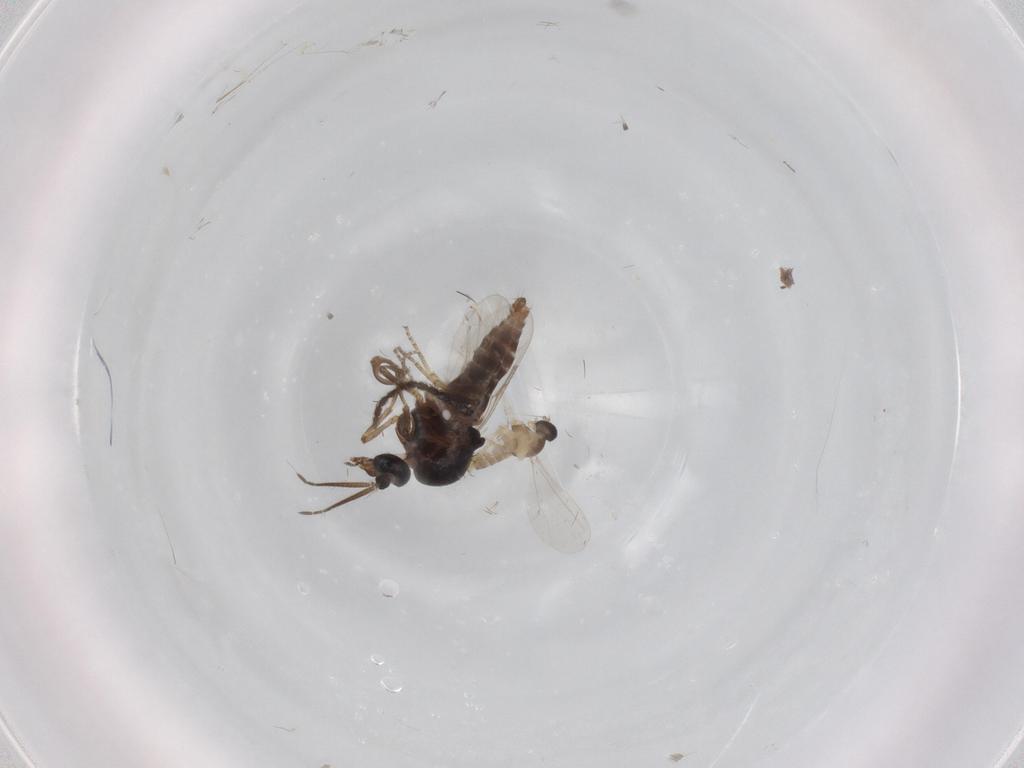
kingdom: Animalia
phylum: Arthropoda
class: Insecta
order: Diptera
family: Ceratopogonidae
